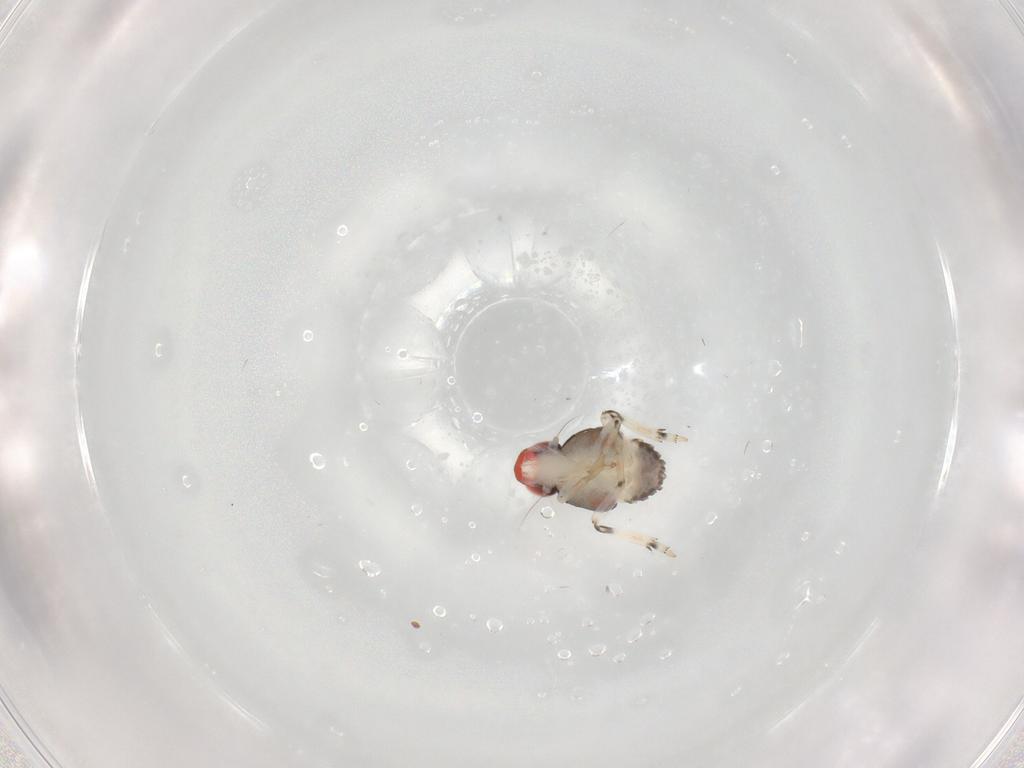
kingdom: Animalia
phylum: Arthropoda
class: Insecta
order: Hemiptera
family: Fulgoroidea_incertae_sedis
